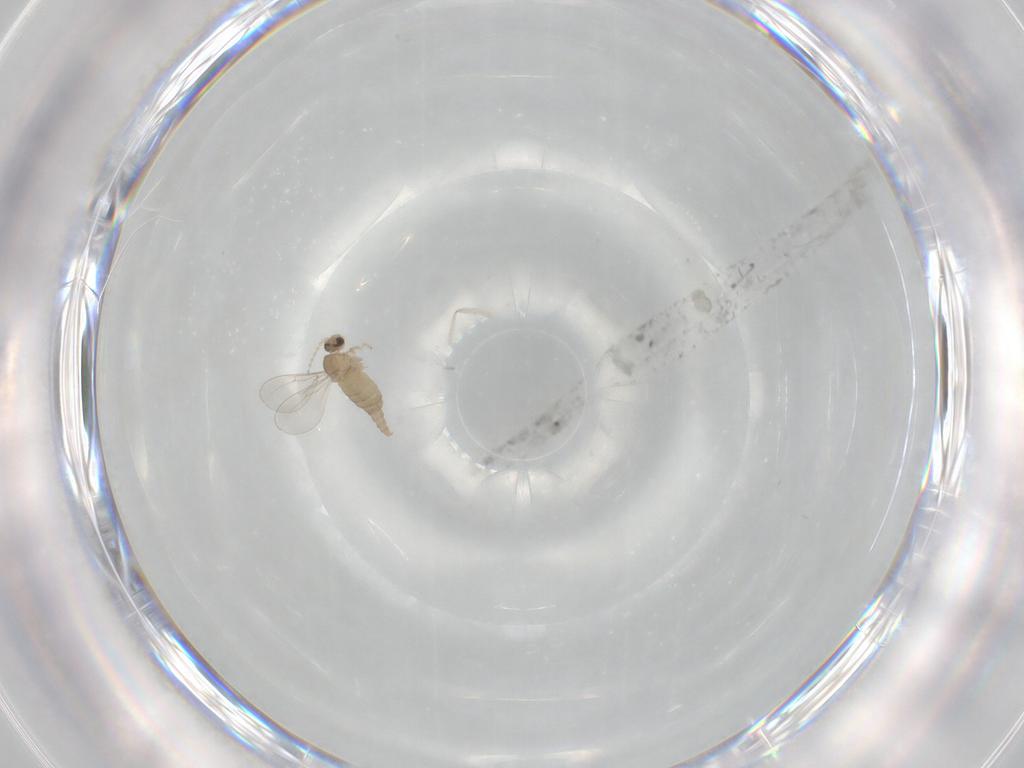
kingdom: Animalia
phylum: Arthropoda
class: Insecta
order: Diptera
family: Cecidomyiidae
